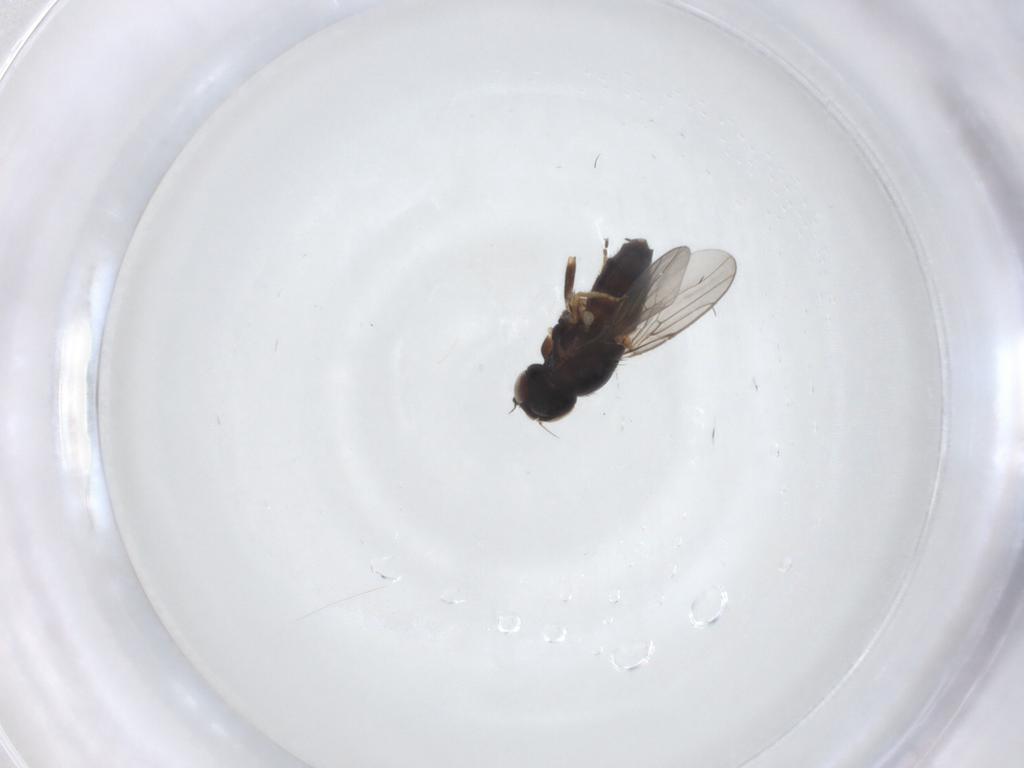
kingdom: Animalia
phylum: Arthropoda
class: Insecta
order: Diptera
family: Chloropidae
